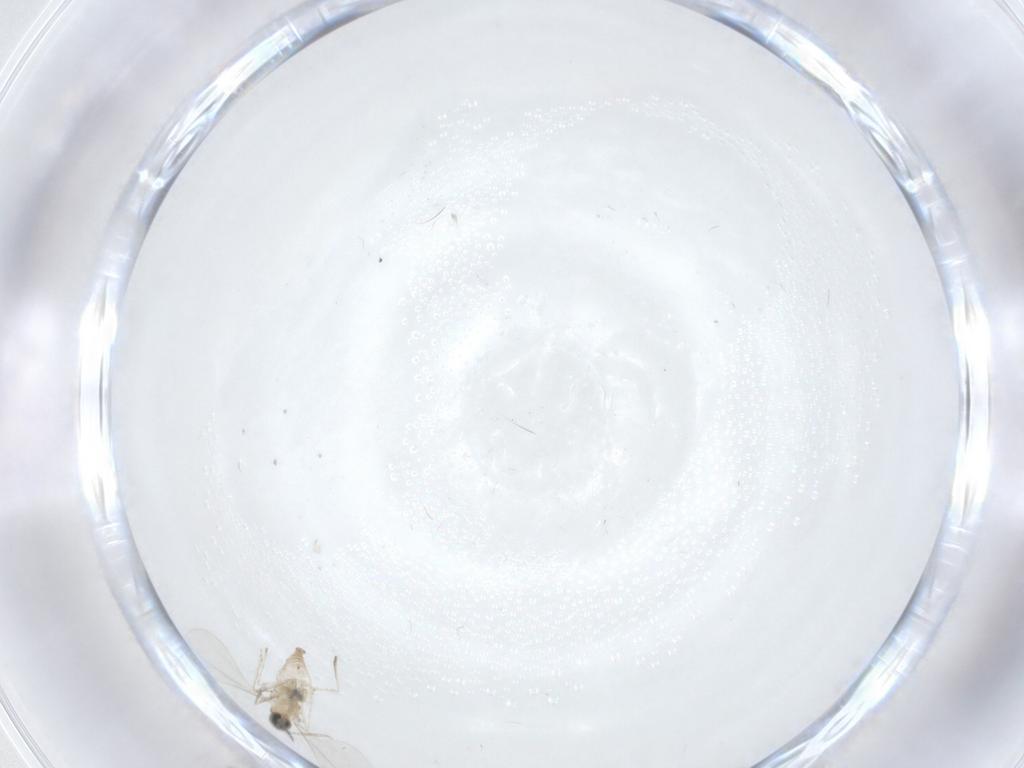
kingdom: Animalia
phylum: Arthropoda
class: Insecta
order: Diptera
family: Cecidomyiidae
